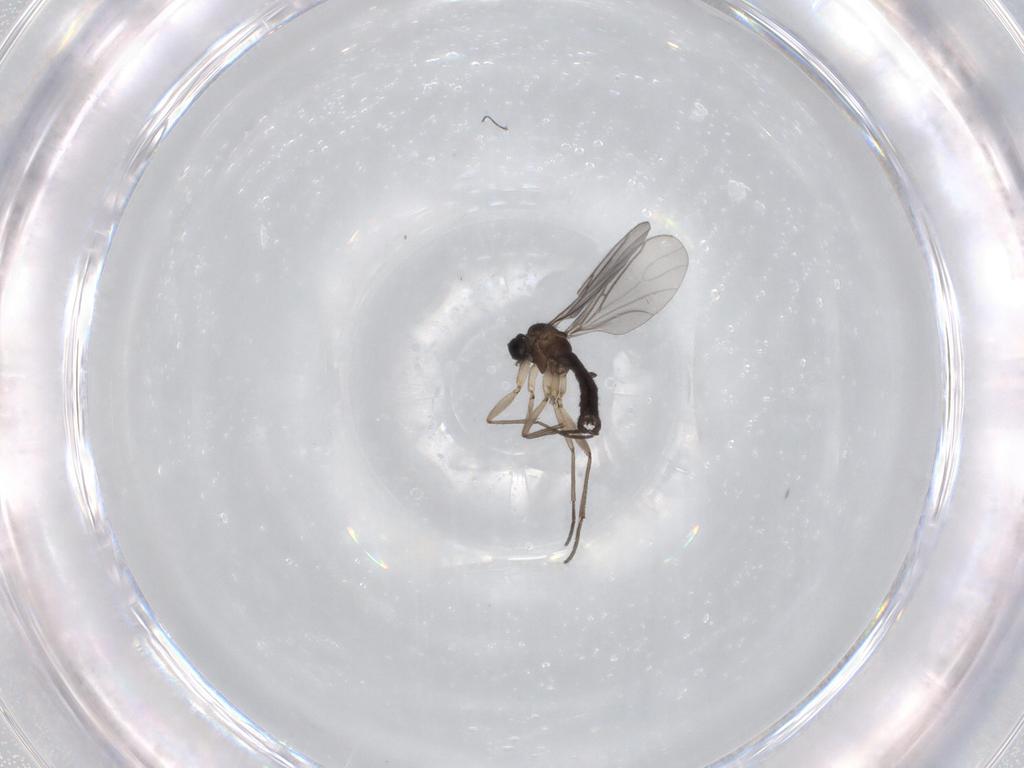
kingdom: Animalia
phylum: Arthropoda
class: Insecta
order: Diptera
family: Sciaridae
